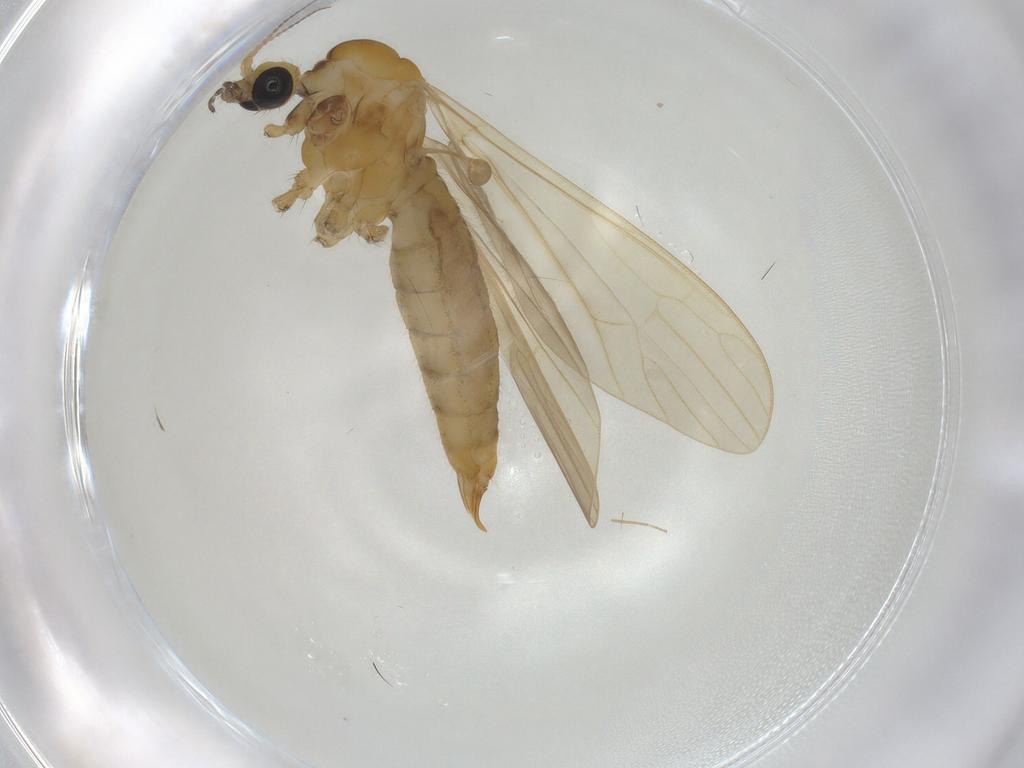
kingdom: Animalia
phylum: Arthropoda
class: Insecta
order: Diptera
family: Limoniidae
